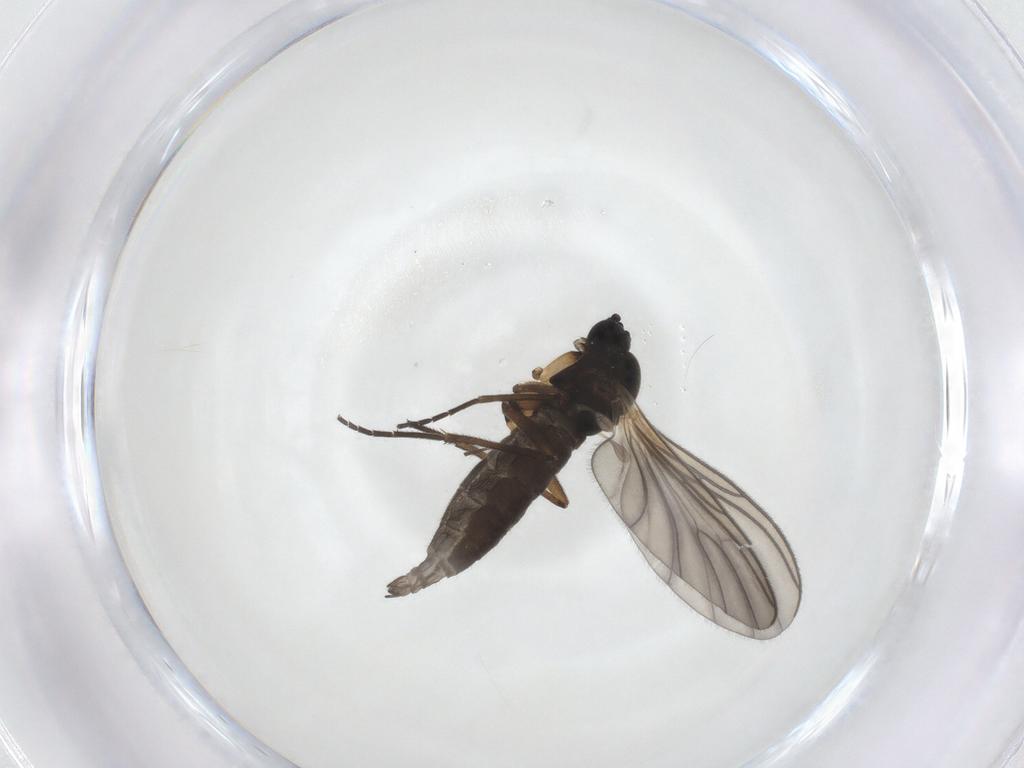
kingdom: Animalia
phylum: Arthropoda
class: Insecta
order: Diptera
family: Sciaridae
